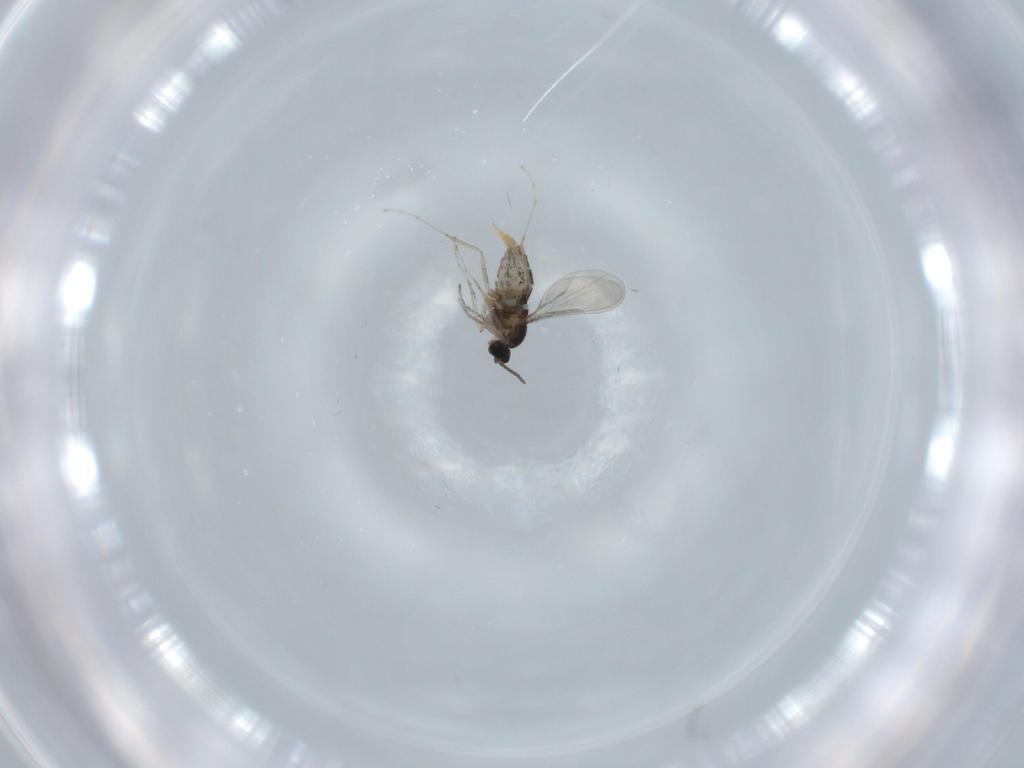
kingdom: Animalia
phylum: Arthropoda
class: Insecta
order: Diptera
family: Cecidomyiidae
